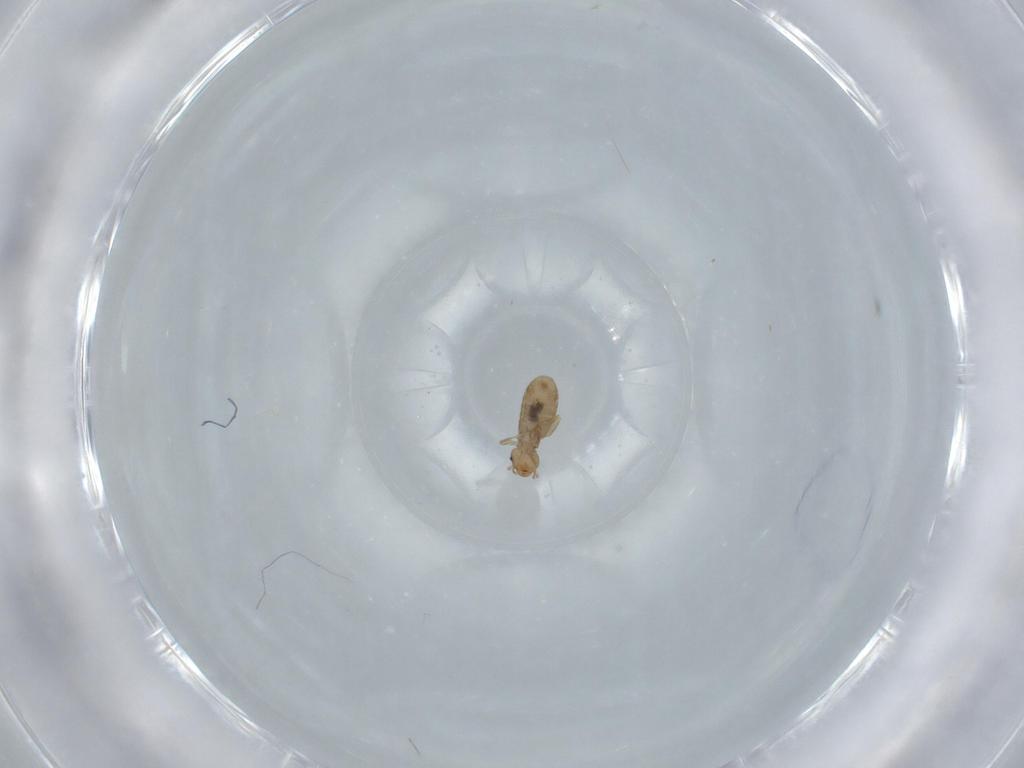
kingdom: Animalia
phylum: Arthropoda
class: Insecta
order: Psocodea
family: Liposcelididae
